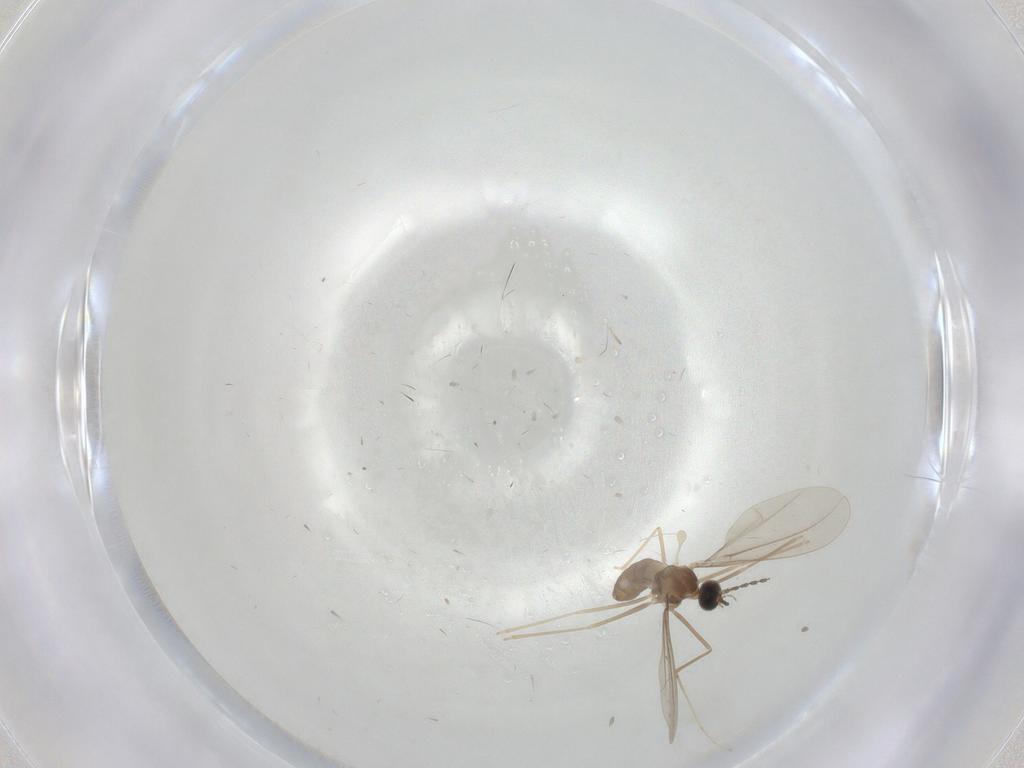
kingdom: Animalia
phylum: Arthropoda
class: Insecta
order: Diptera
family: Cecidomyiidae
